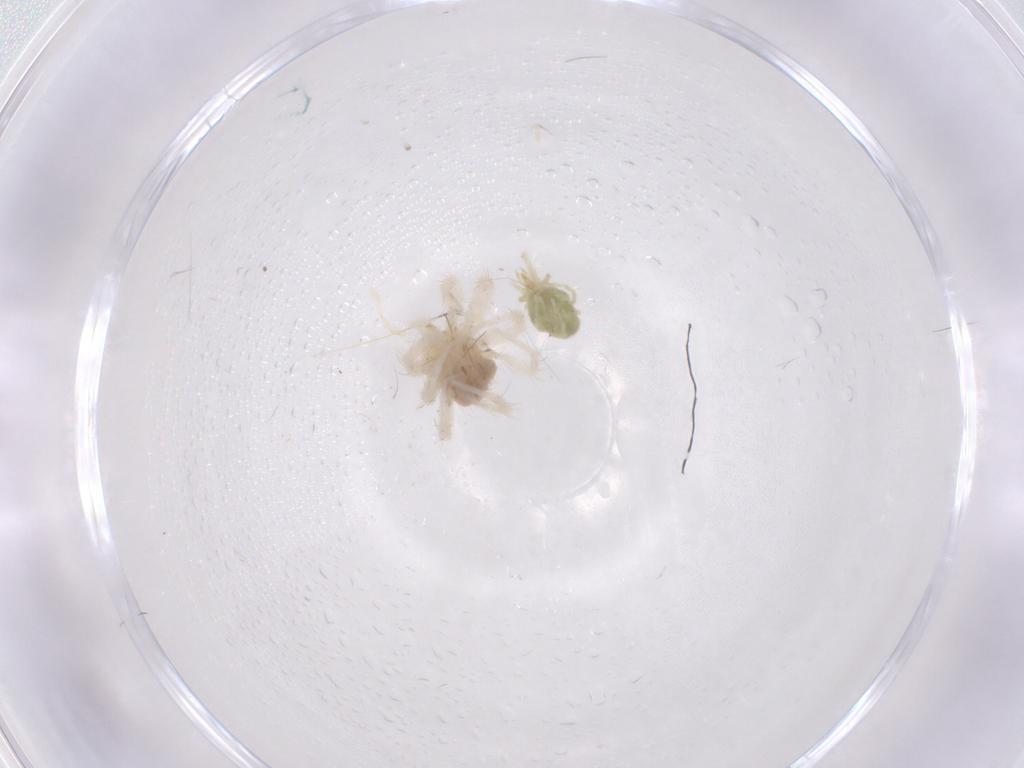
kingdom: Animalia
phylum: Arthropoda
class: Arachnida
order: Trombidiformes
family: Anystidae
